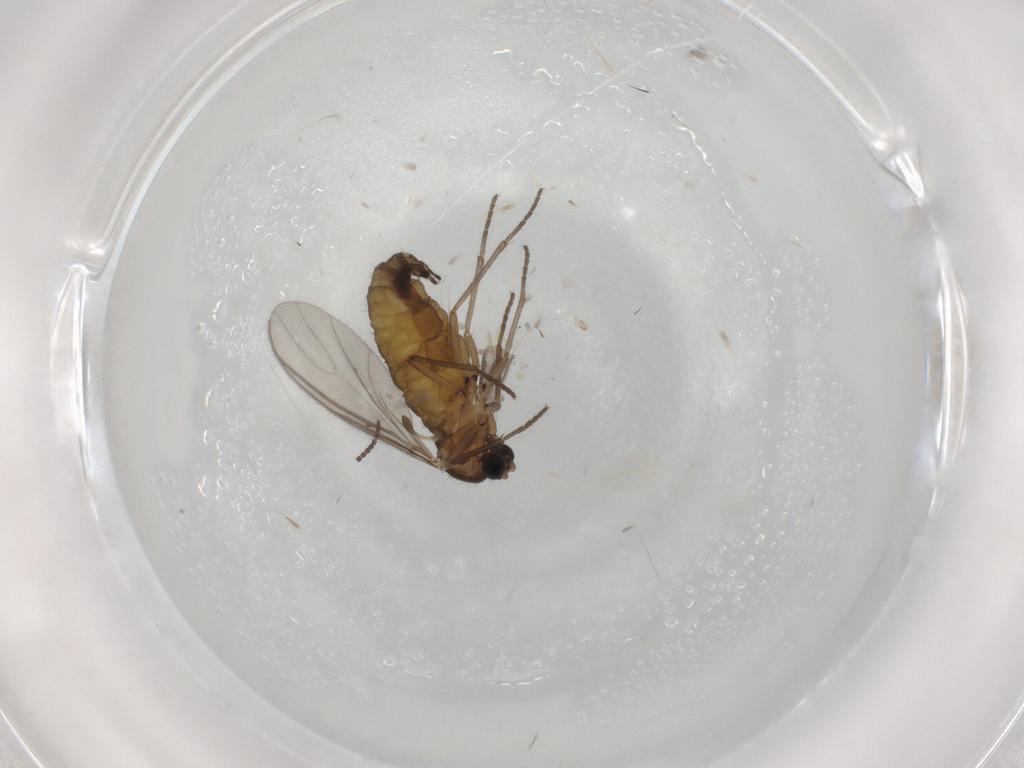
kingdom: Animalia
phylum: Arthropoda
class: Insecta
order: Diptera
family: Sciaridae
